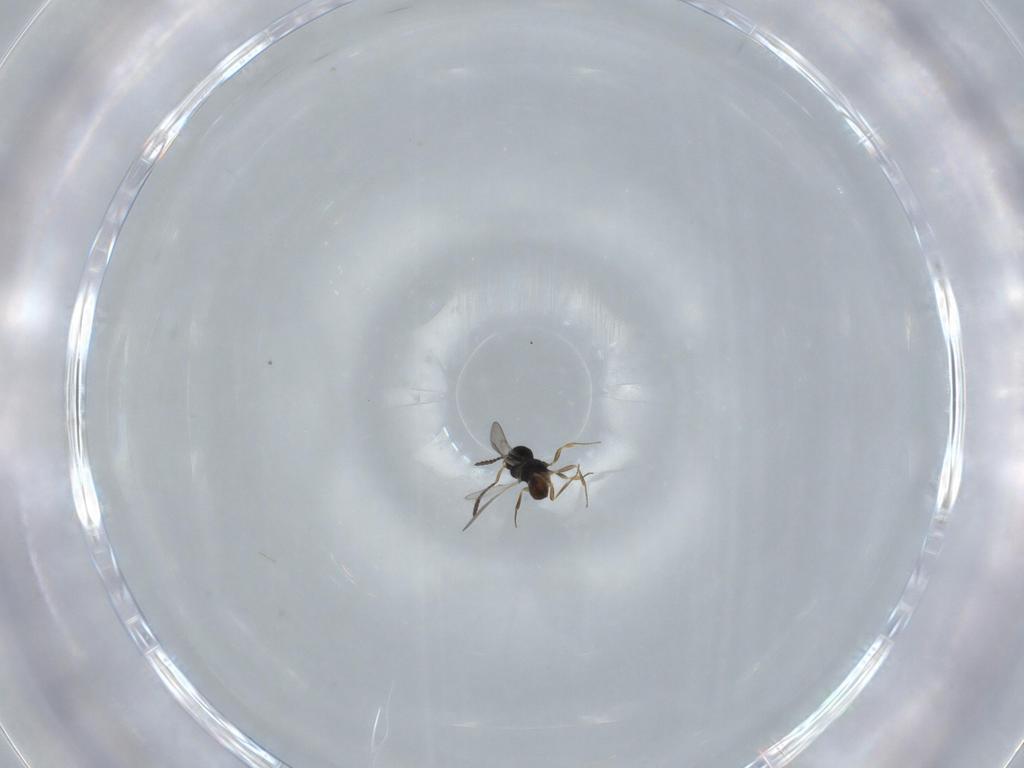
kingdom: Animalia
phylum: Arthropoda
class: Insecta
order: Hymenoptera
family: Scelionidae
